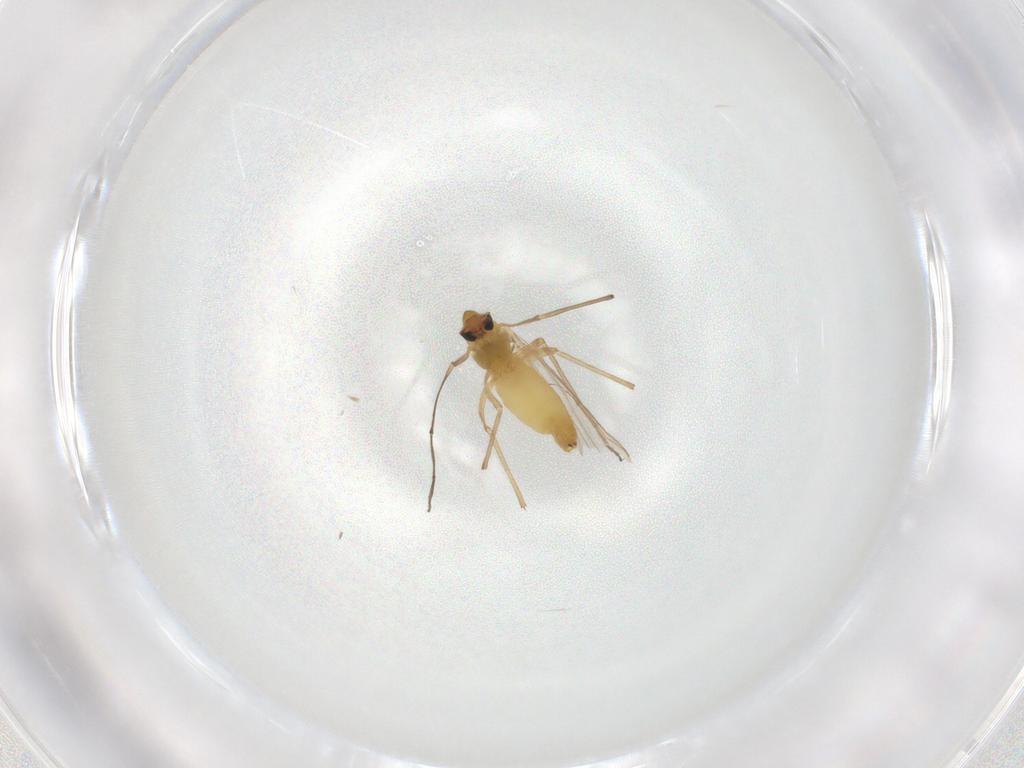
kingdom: Animalia
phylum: Arthropoda
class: Insecta
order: Diptera
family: Chironomidae
